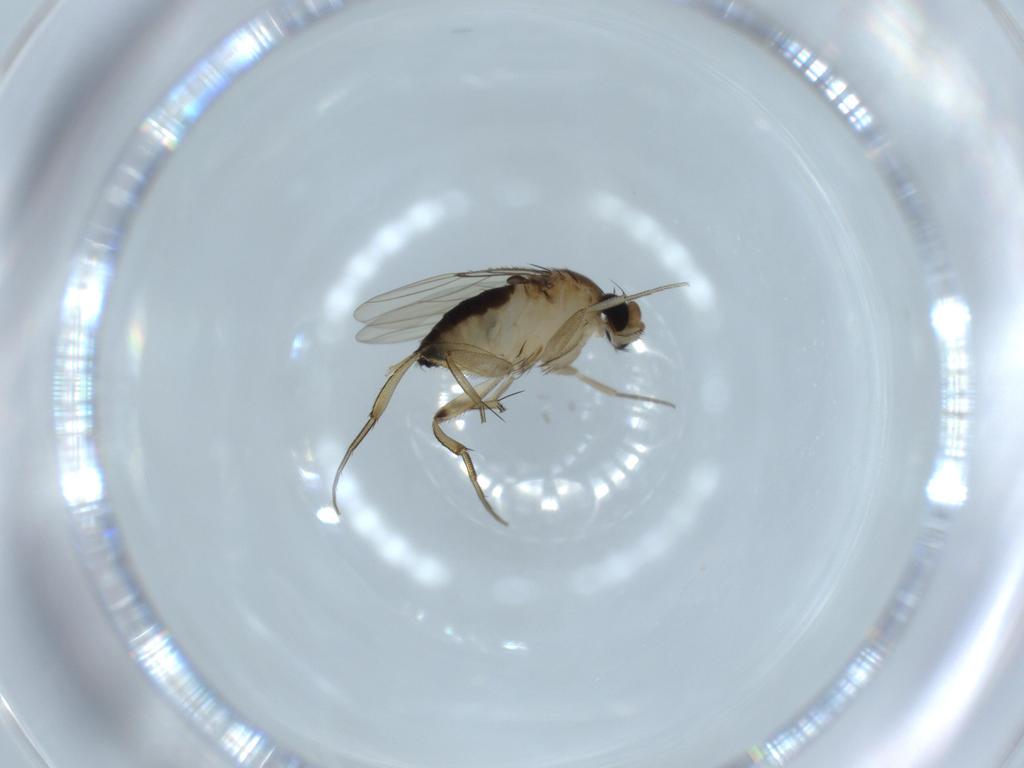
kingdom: Animalia
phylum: Arthropoda
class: Insecta
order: Diptera
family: Phoridae
